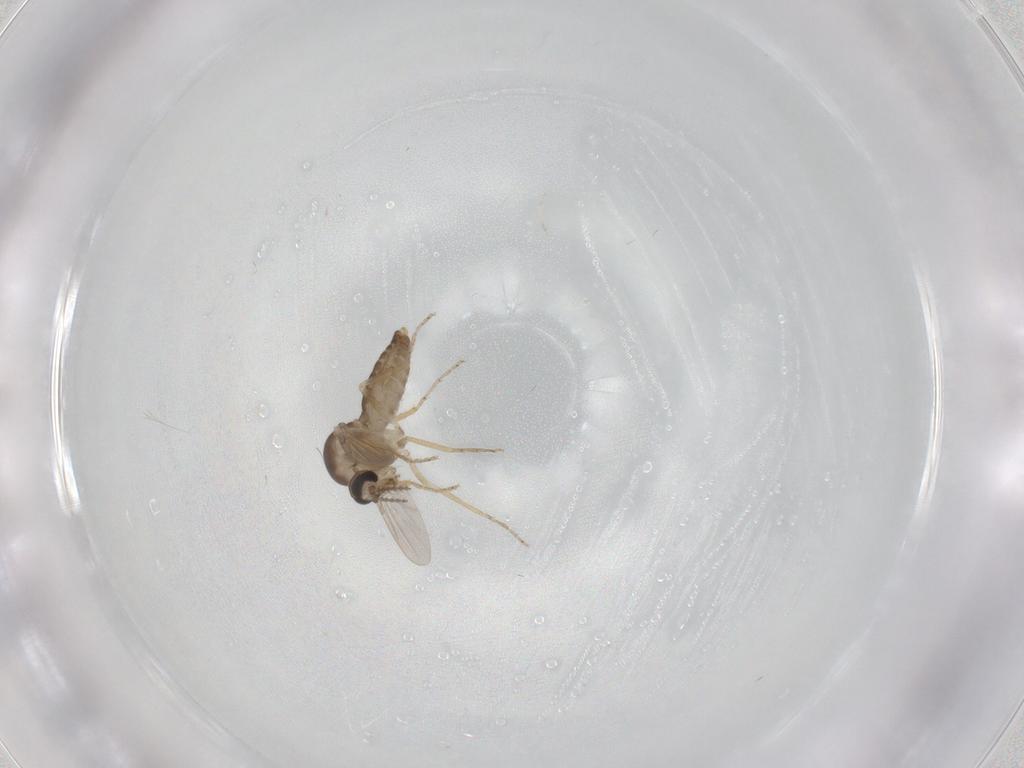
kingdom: Animalia
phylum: Arthropoda
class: Insecta
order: Diptera
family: Ceratopogonidae
